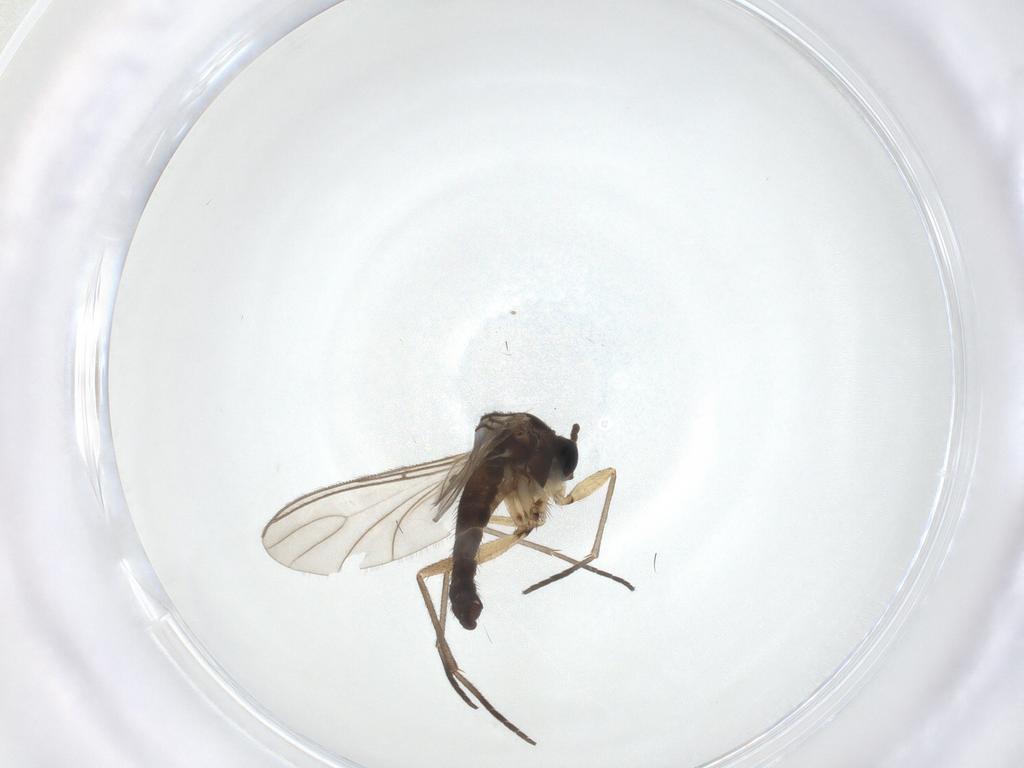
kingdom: Animalia
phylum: Arthropoda
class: Insecta
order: Diptera
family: Sciaridae
